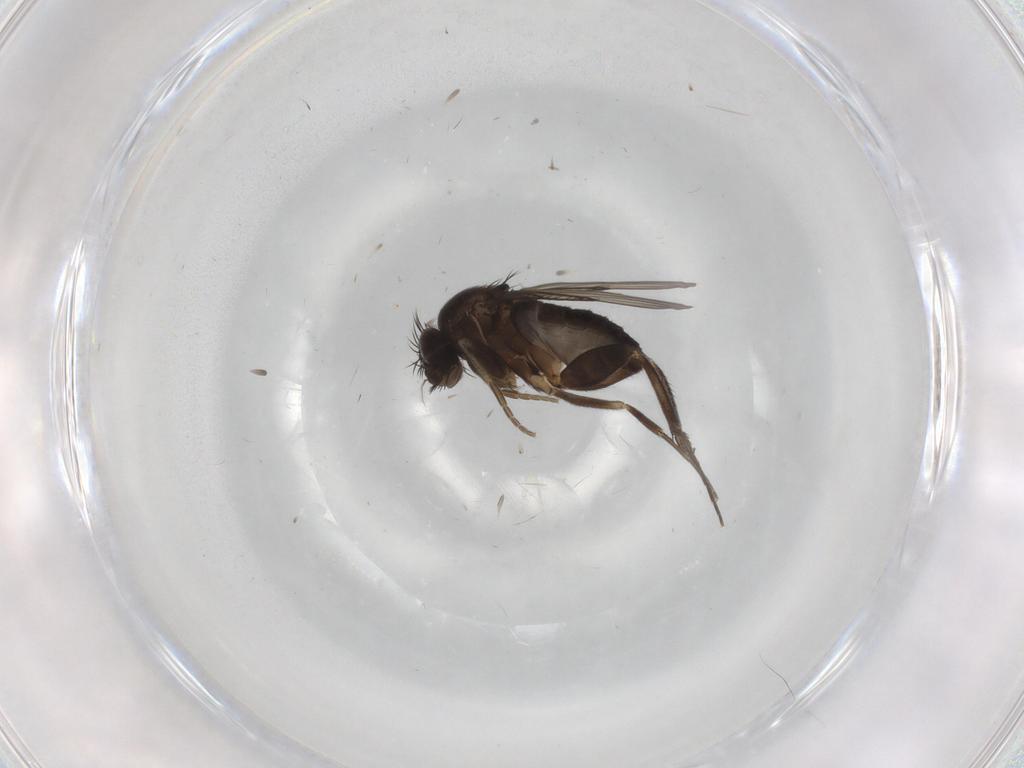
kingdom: Animalia
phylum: Arthropoda
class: Insecta
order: Diptera
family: Phoridae
